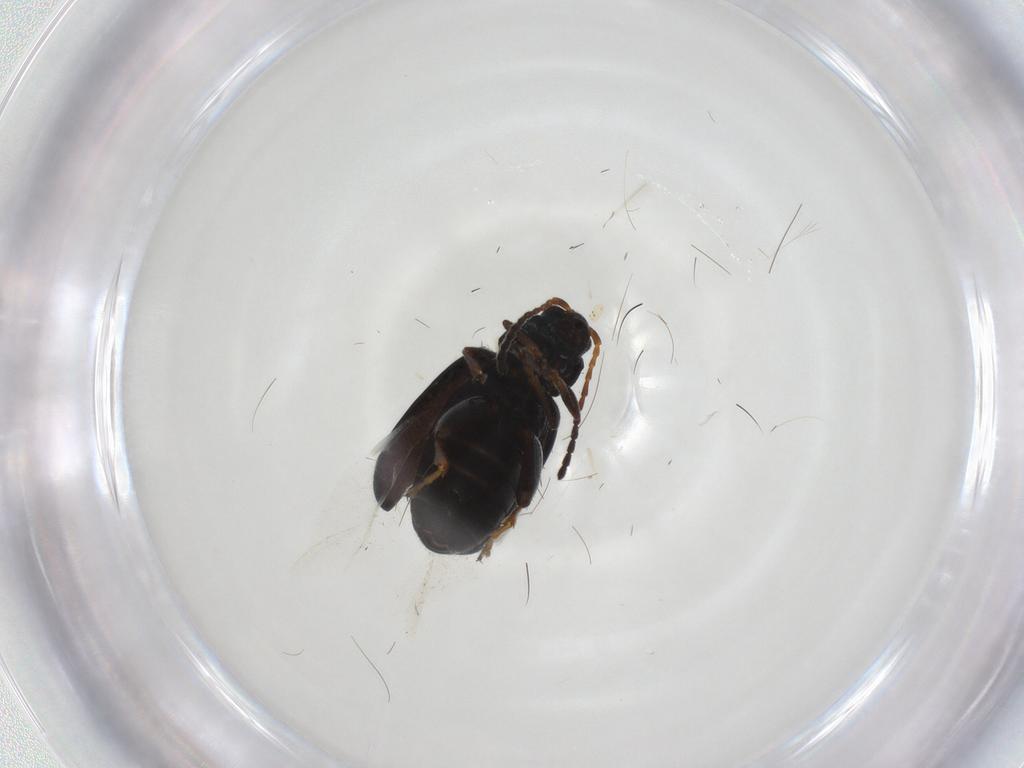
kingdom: Animalia
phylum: Arthropoda
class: Insecta
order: Coleoptera
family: Chrysomelidae
